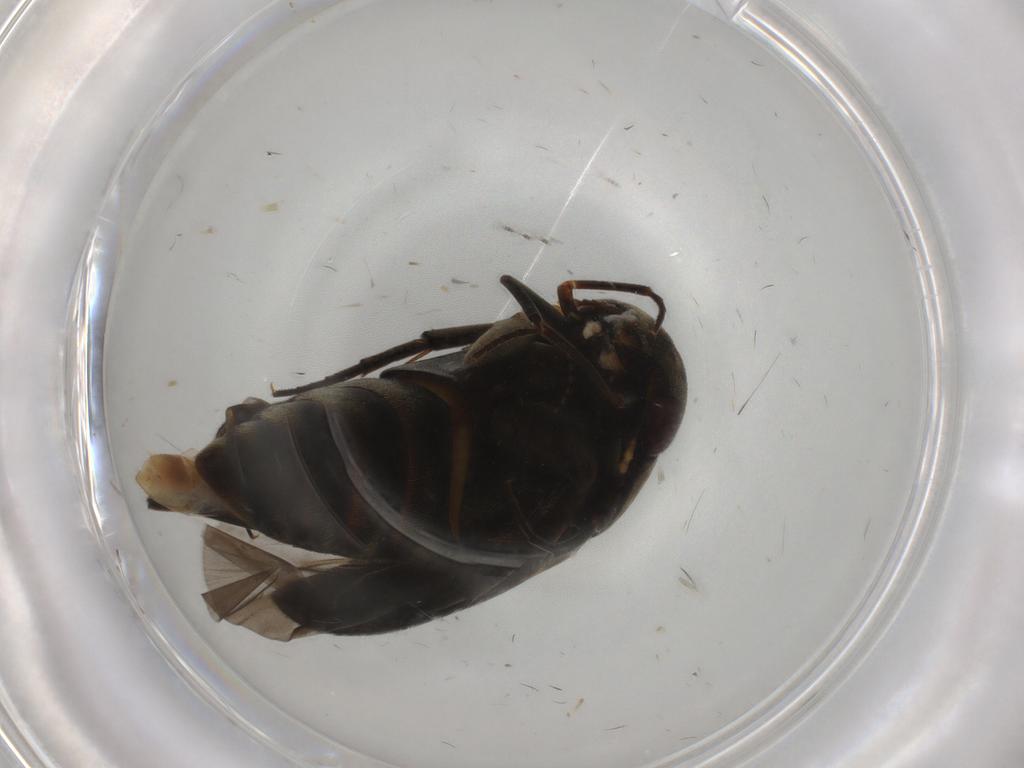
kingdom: Animalia
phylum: Arthropoda
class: Insecta
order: Coleoptera
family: Mordellidae
